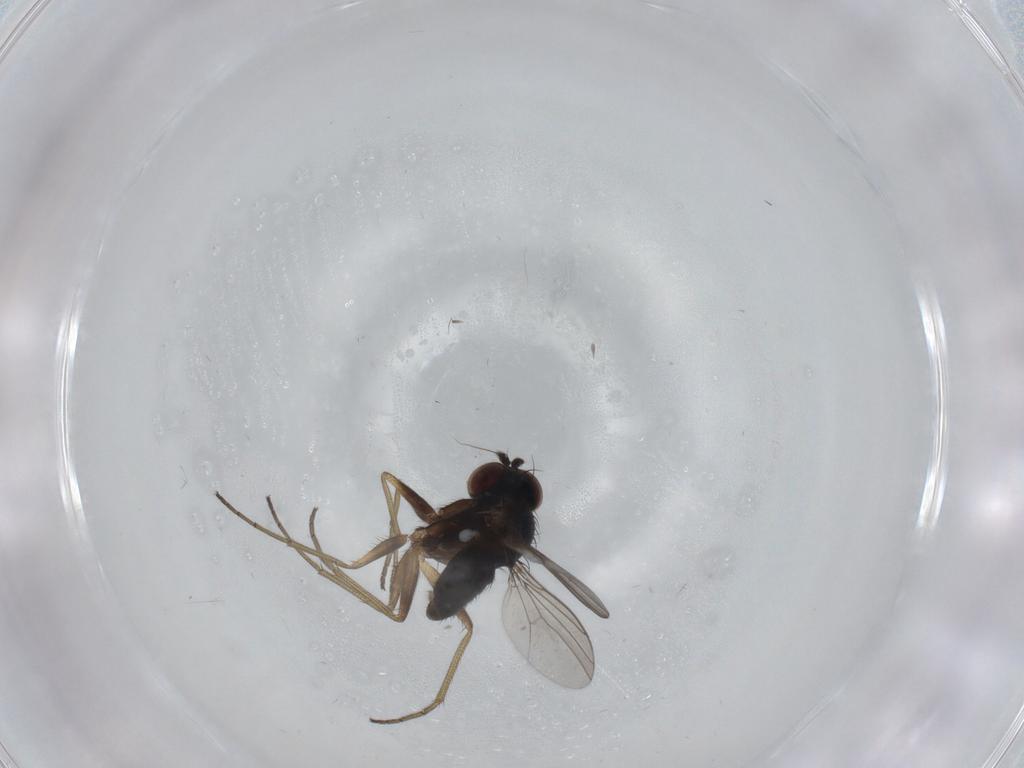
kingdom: Animalia
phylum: Arthropoda
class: Insecta
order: Diptera
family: Dolichopodidae
